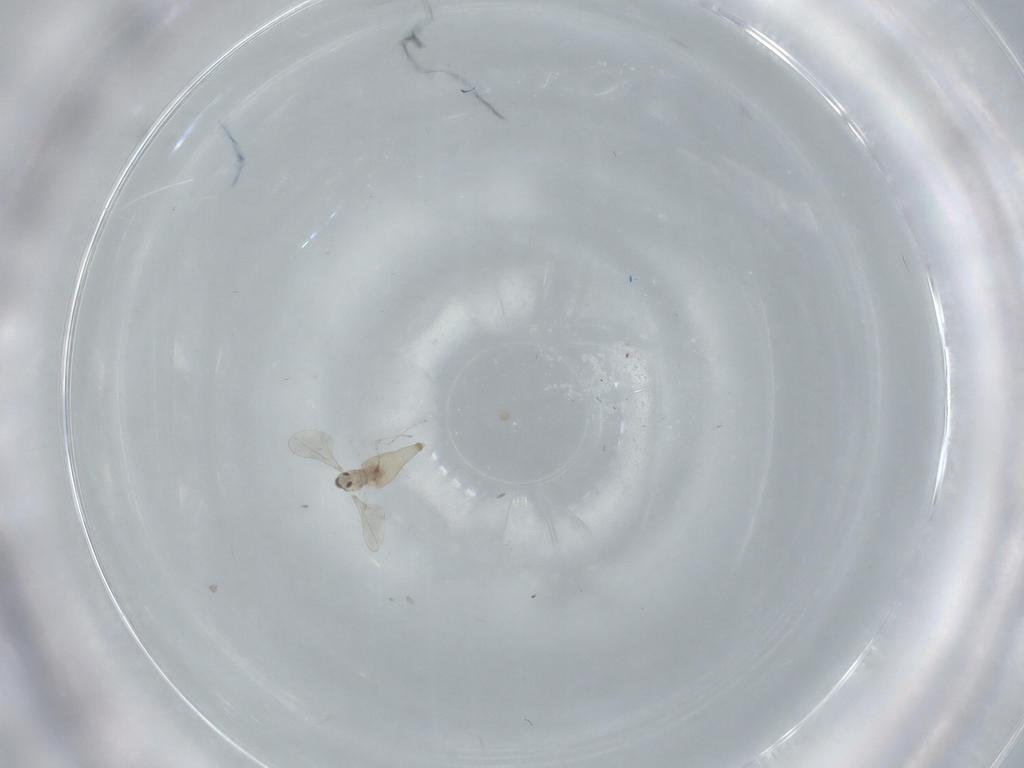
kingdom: Animalia
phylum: Arthropoda
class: Insecta
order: Diptera
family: Cecidomyiidae
